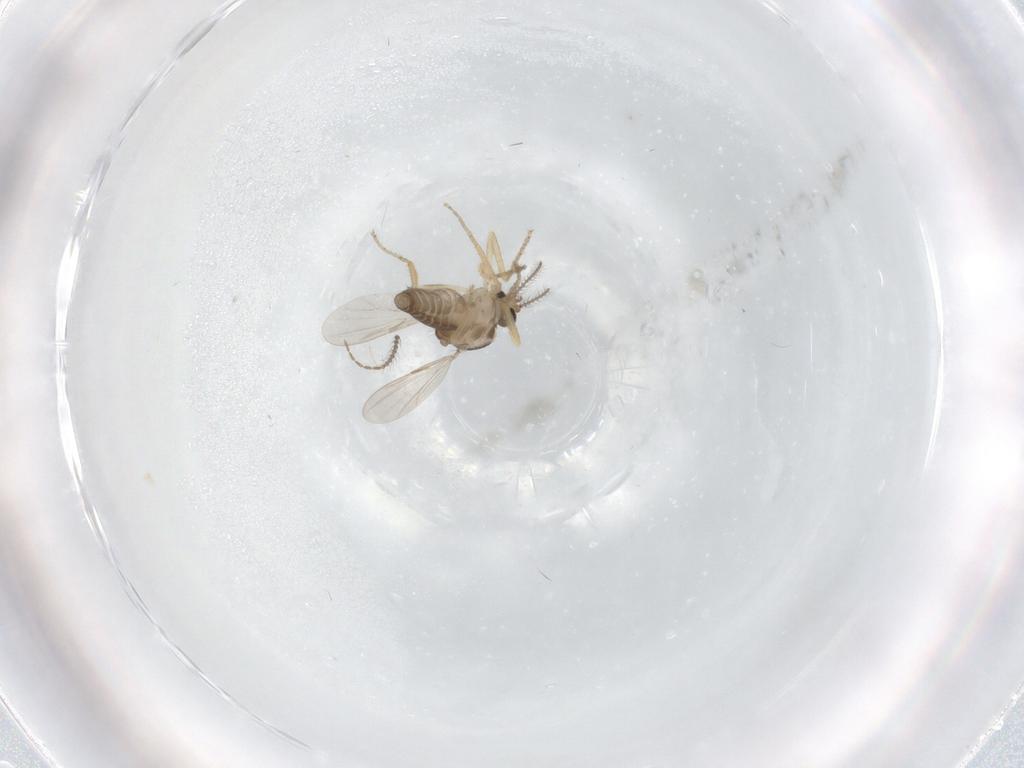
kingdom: Animalia
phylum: Arthropoda
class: Insecta
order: Diptera
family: Ceratopogonidae
